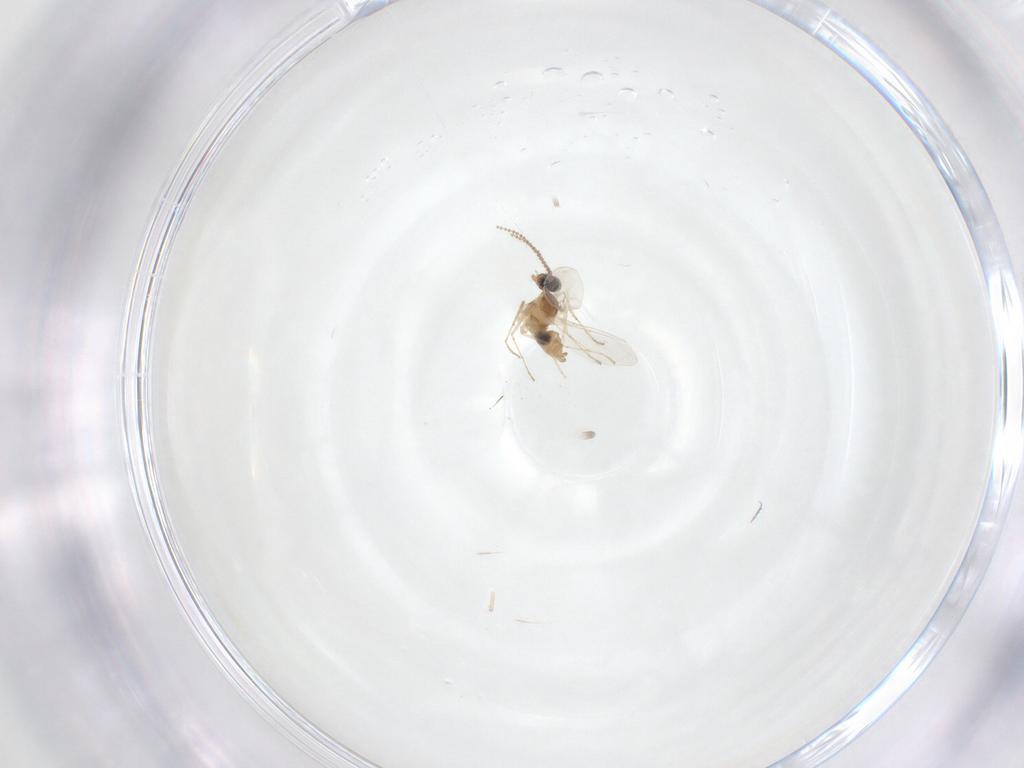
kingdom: Animalia
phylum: Arthropoda
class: Insecta
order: Diptera
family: Cecidomyiidae
